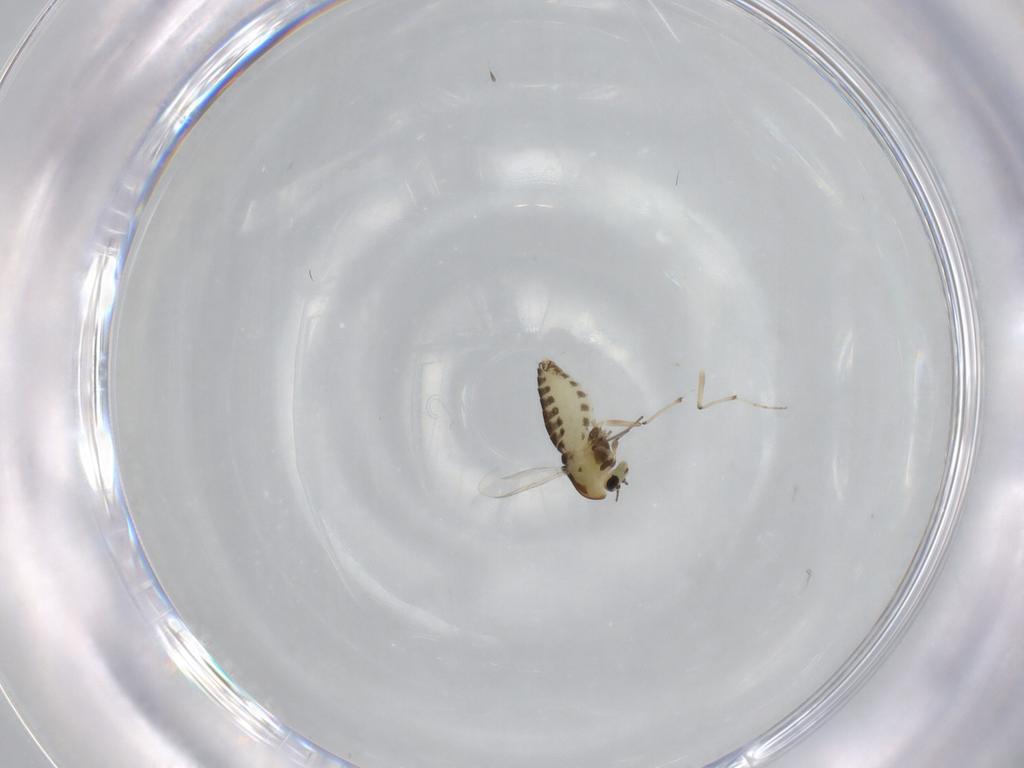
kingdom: Animalia
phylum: Arthropoda
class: Insecta
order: Diptera
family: Chironomidae
